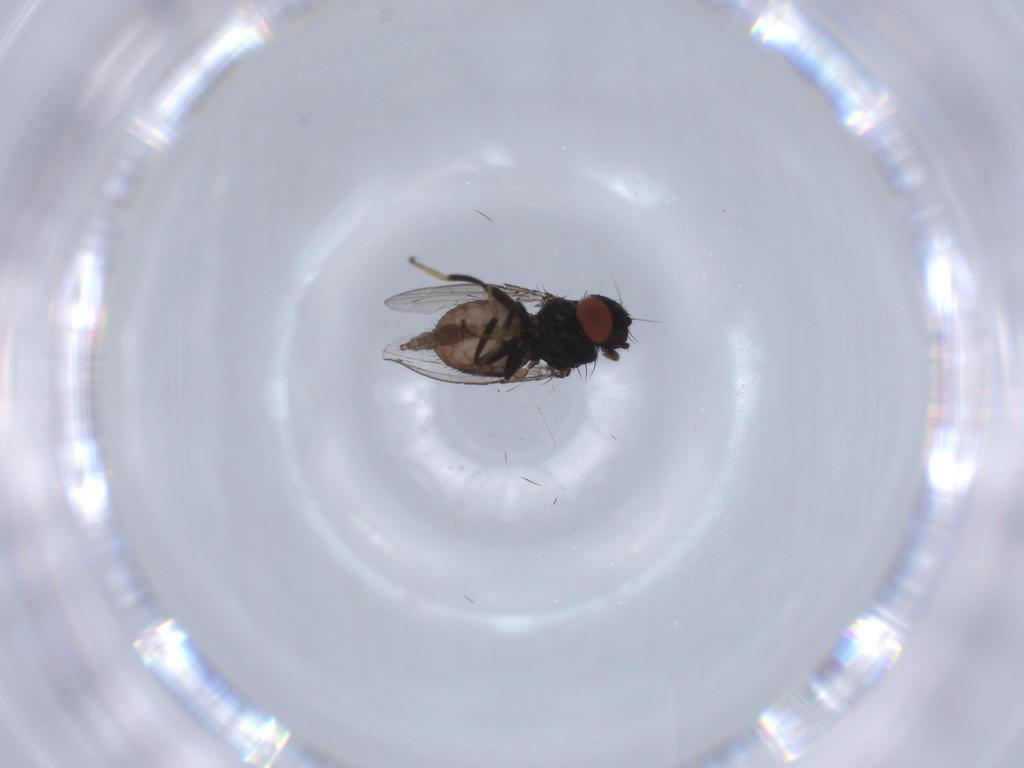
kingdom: Animalia
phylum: Arthropoda
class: Insecta
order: Diptera
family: Milichiidae
